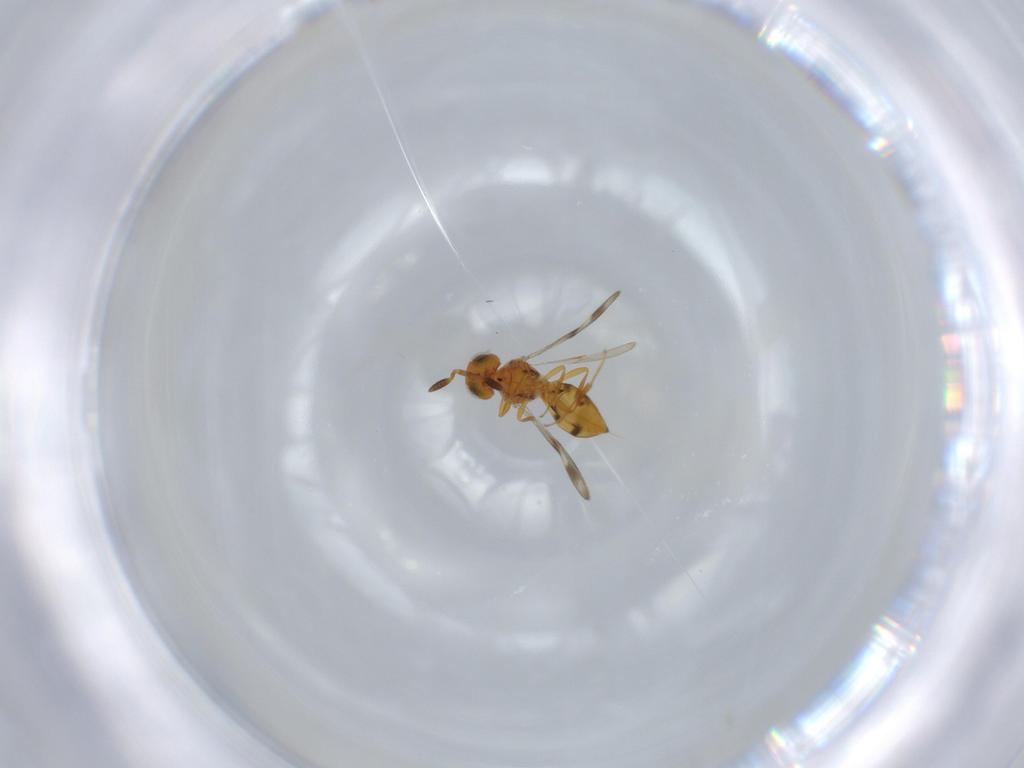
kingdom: Animalia
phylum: Arthropoda
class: Insecta
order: Hymenoptera
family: Scelionidae
